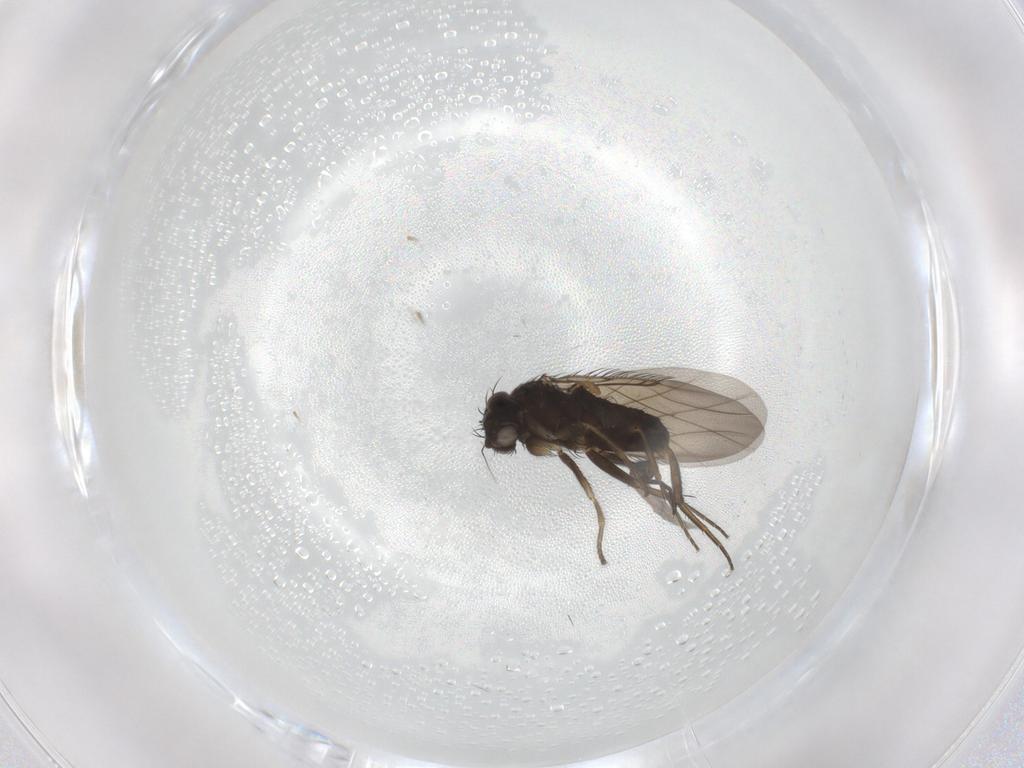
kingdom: Animalia
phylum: Arthropoda
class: Insecta
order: Diptera
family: Phoridae
